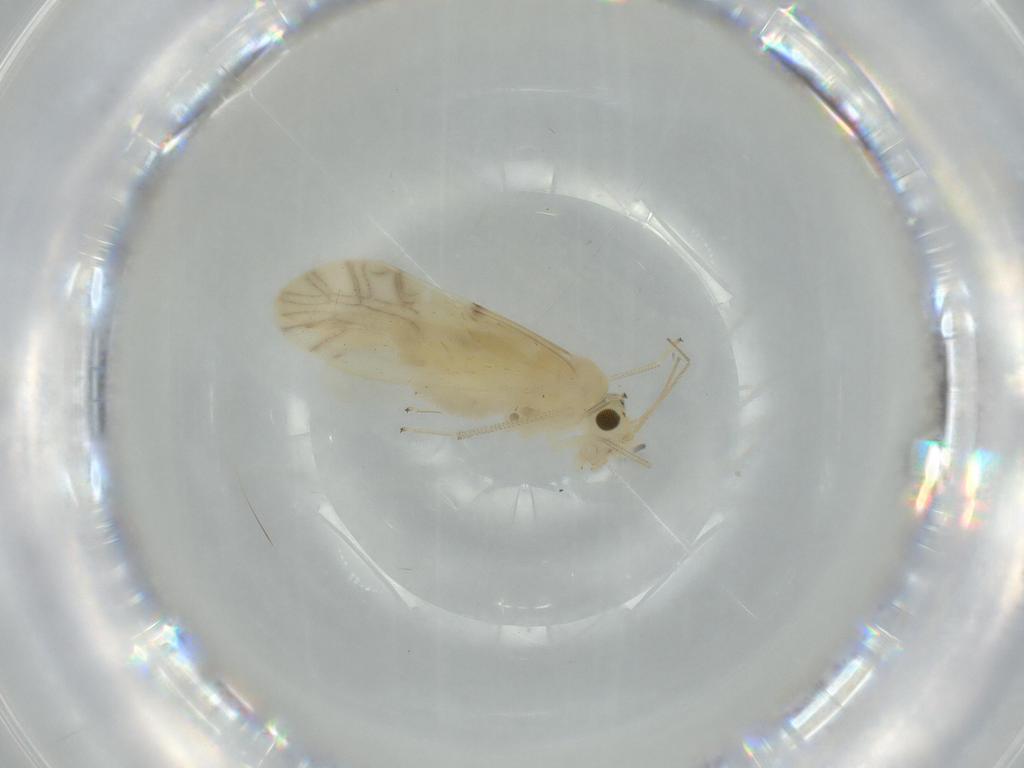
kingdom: Animalia
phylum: Arthropoda
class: Insecta
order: Psocodea
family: Caeciliusidae
